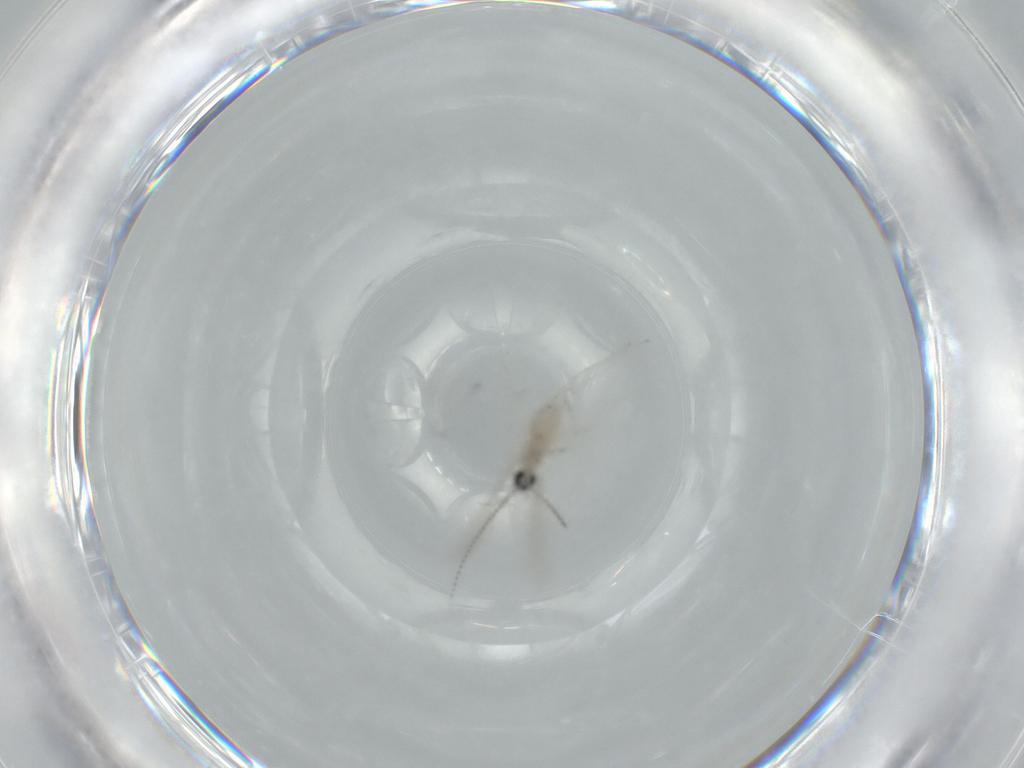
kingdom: Animalia
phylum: Arthropoda
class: Insecta
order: Diptera
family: Cecidomyiidae
